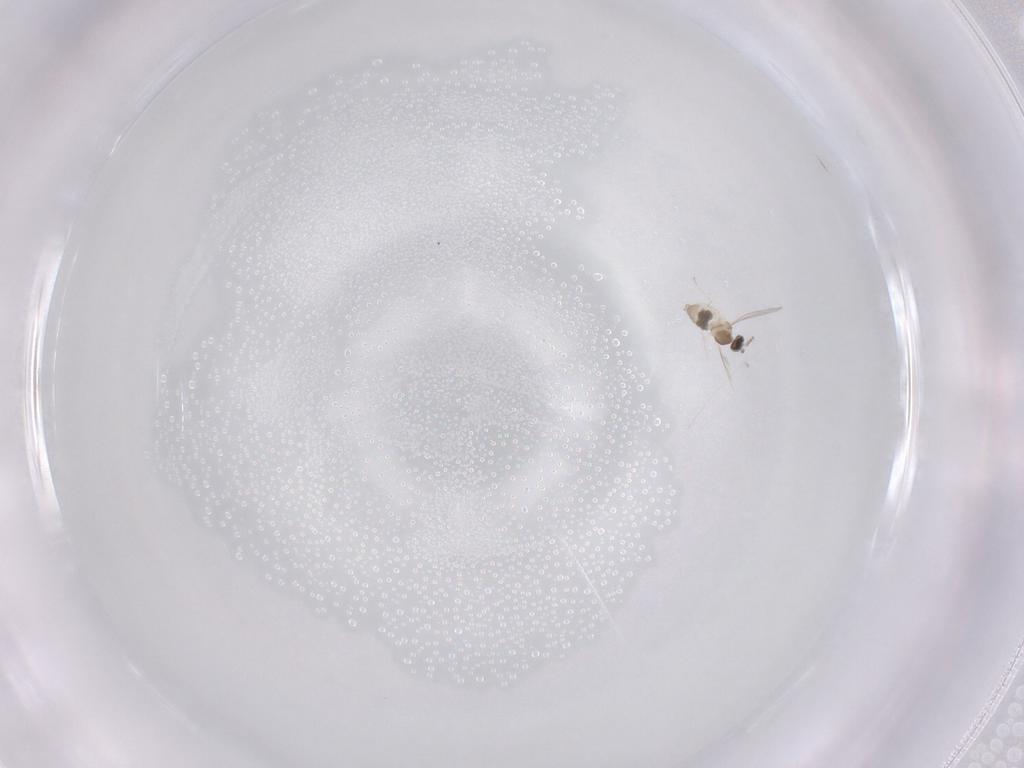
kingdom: Animalia
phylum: Arthropoda
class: Insecta
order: Diptera
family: Cecidomyiidae
